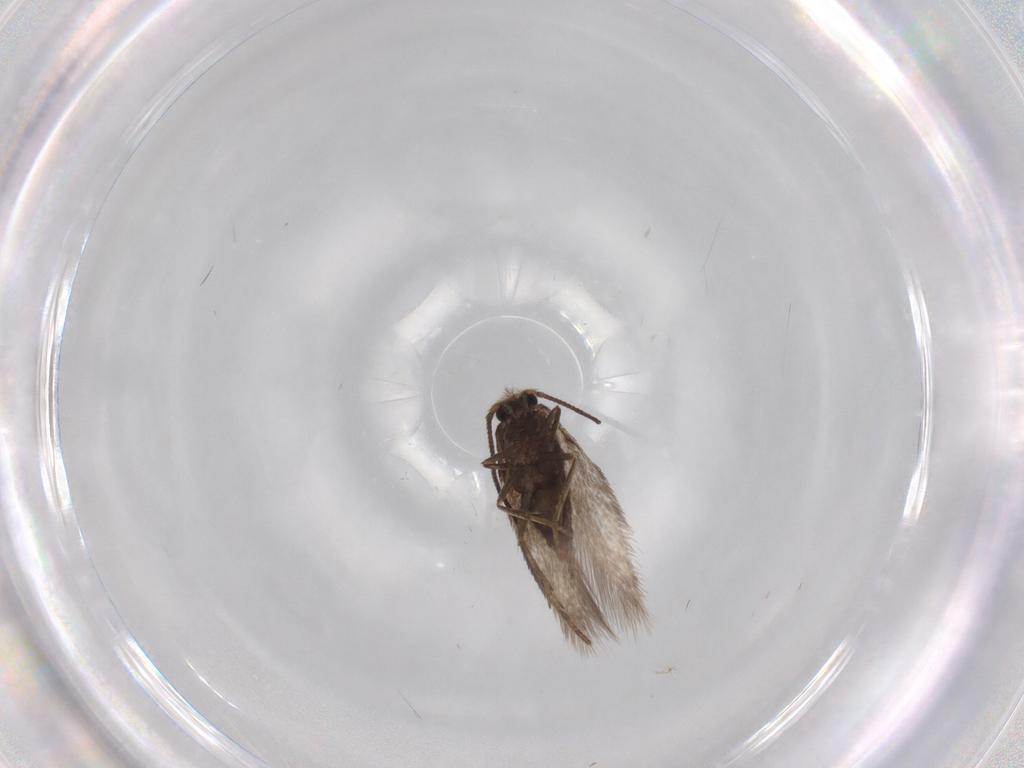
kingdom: Animalia
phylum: Arthropoda
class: Insecta
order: Lepidoptera
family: Nepticulidae
